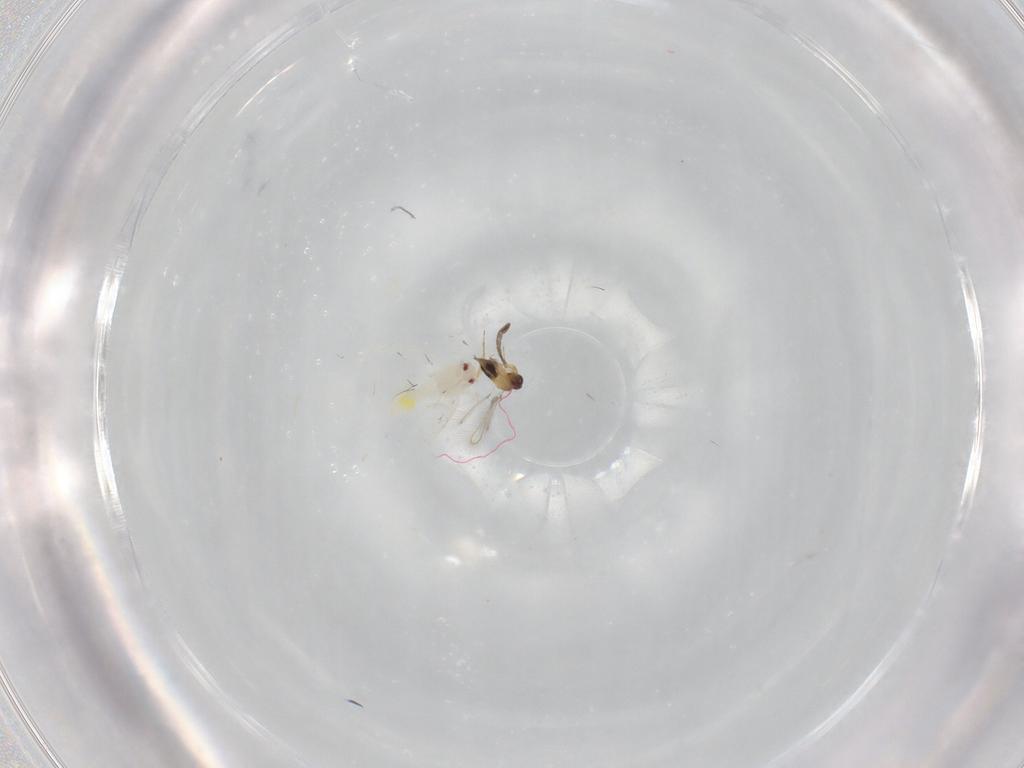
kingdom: Animalia
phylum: Arthropoda
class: Insecta
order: Hymenoptera
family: Mymaridae
